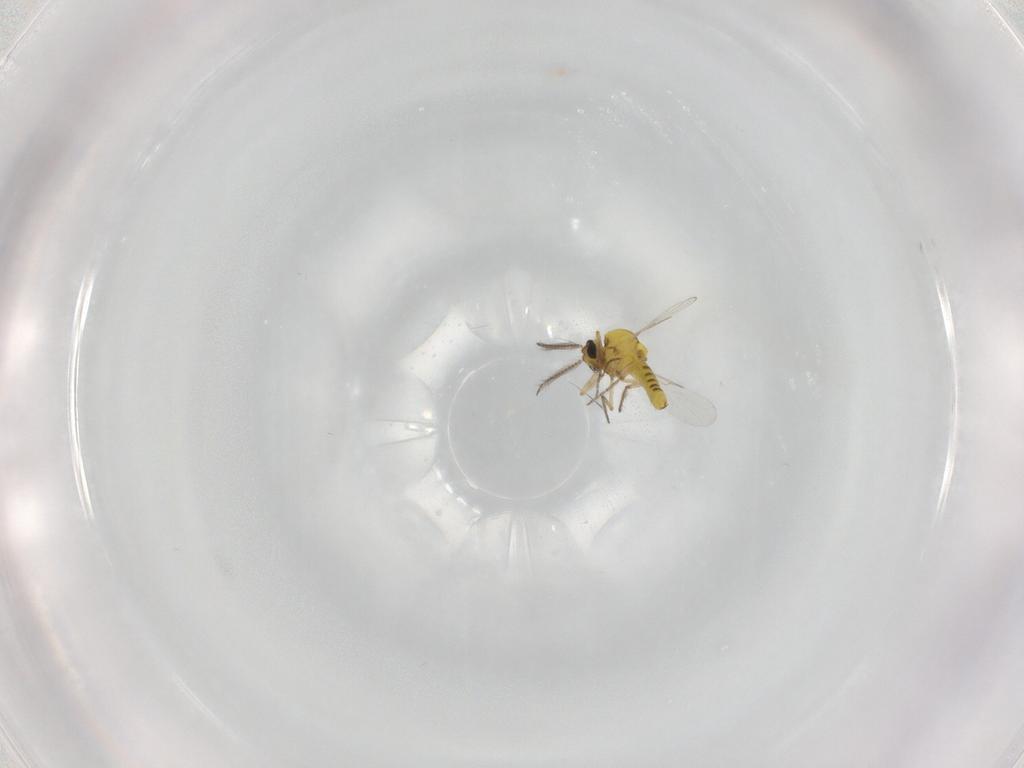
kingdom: Animalia
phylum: Arthropoda
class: Insecta
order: Diptera
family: Ceratopogonidae
